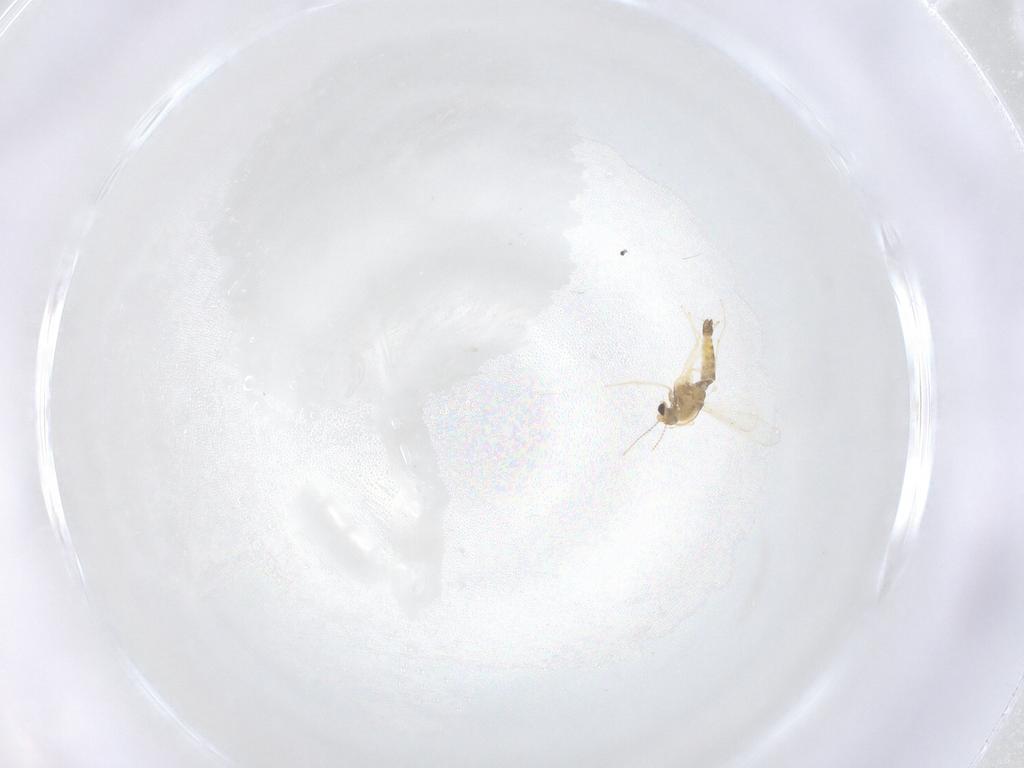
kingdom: Animalia
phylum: Arthropoda
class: Insecta
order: Diptera
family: Chironomidae
